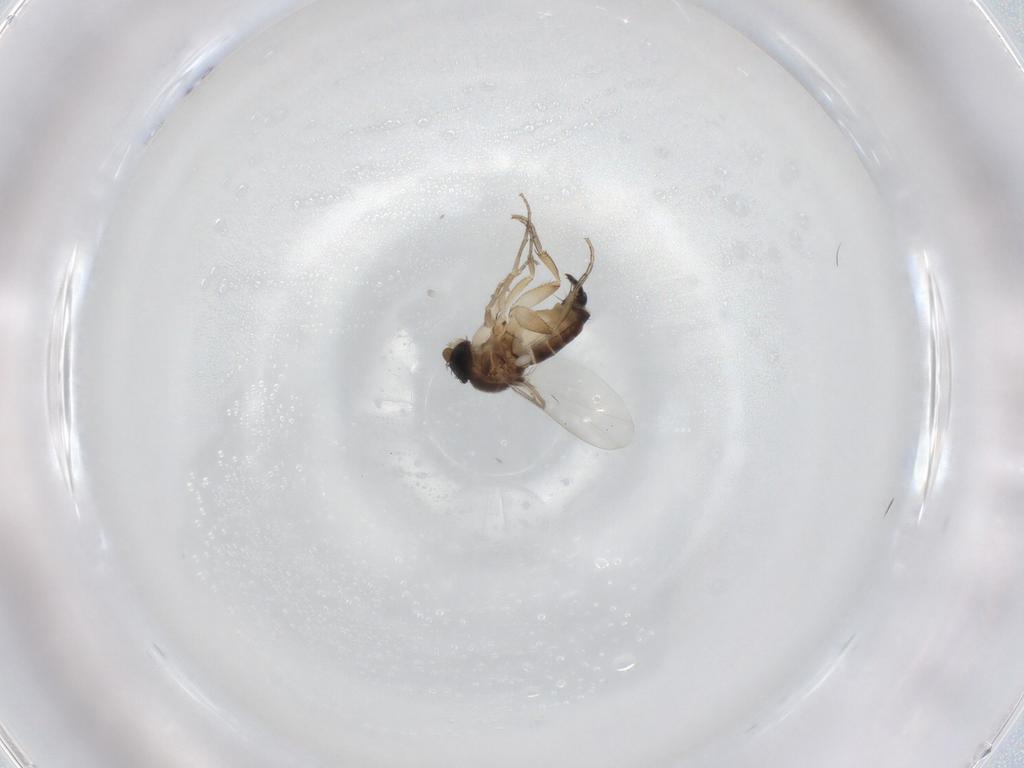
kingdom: Animalia
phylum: Arthropoda
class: Insecta
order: Diptera
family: Phoridae
